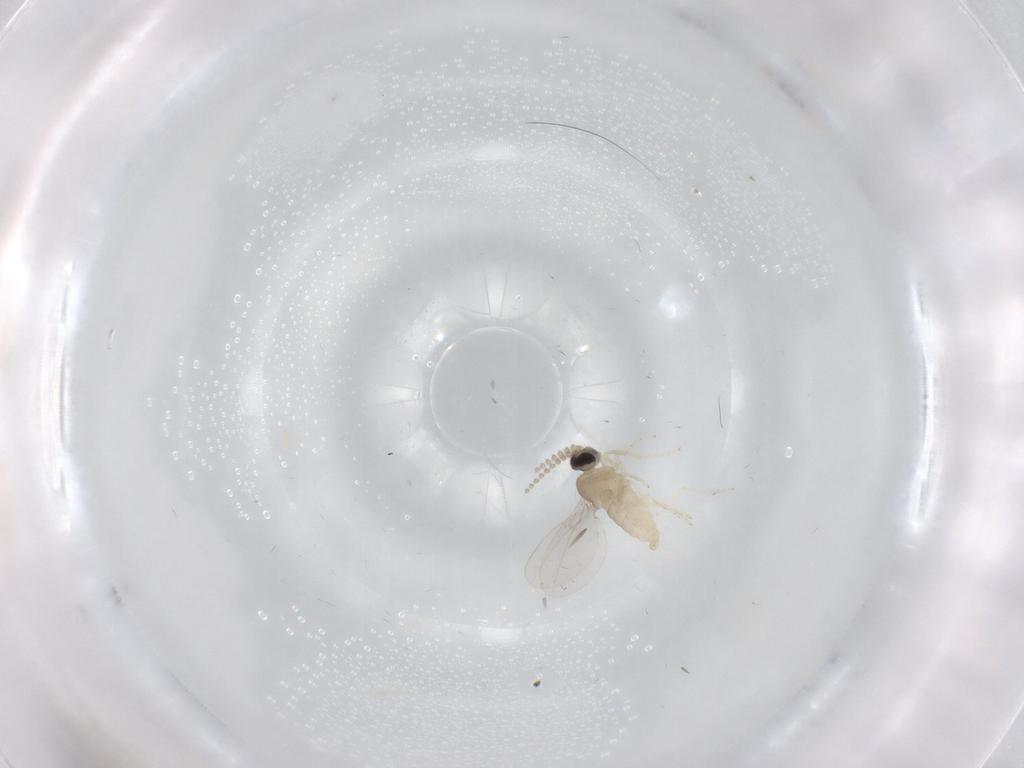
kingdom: Animalia
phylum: Arthropoda
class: Insecta
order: Diptera
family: Cecidomyiidae
